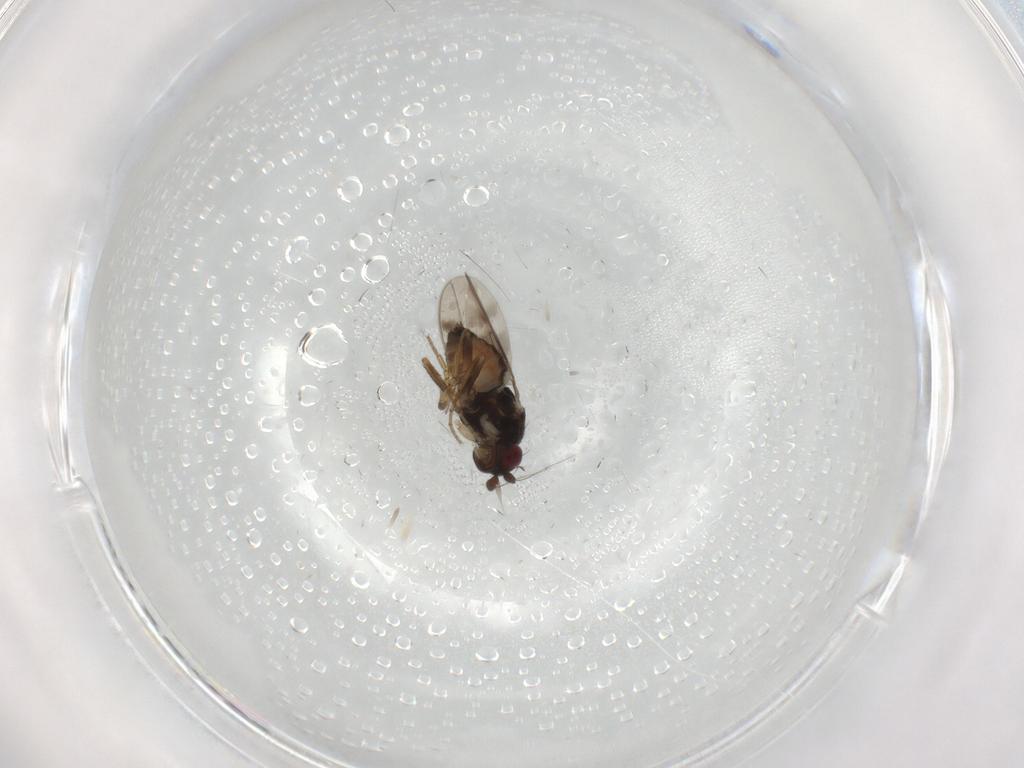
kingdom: Animalia
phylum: Arthropoda
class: Insecta
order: Diptera
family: Sphaeroceridae
